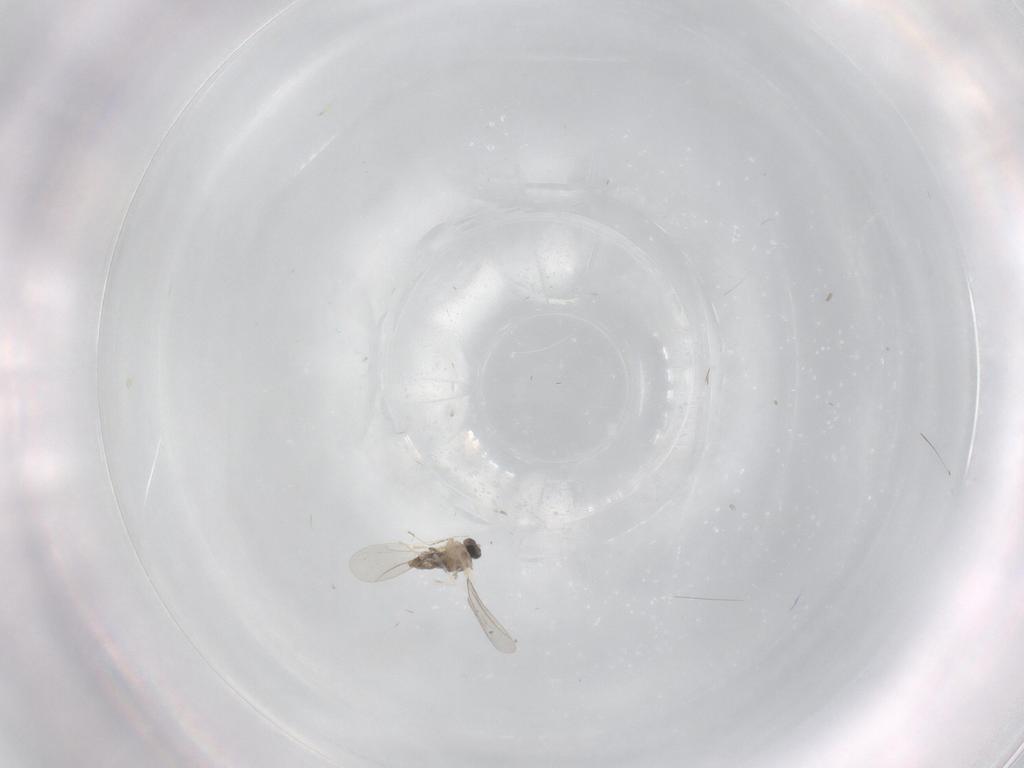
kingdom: Animalia
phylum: Arthropoda
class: Insecta
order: Diptera
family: Cecidomyiidae
